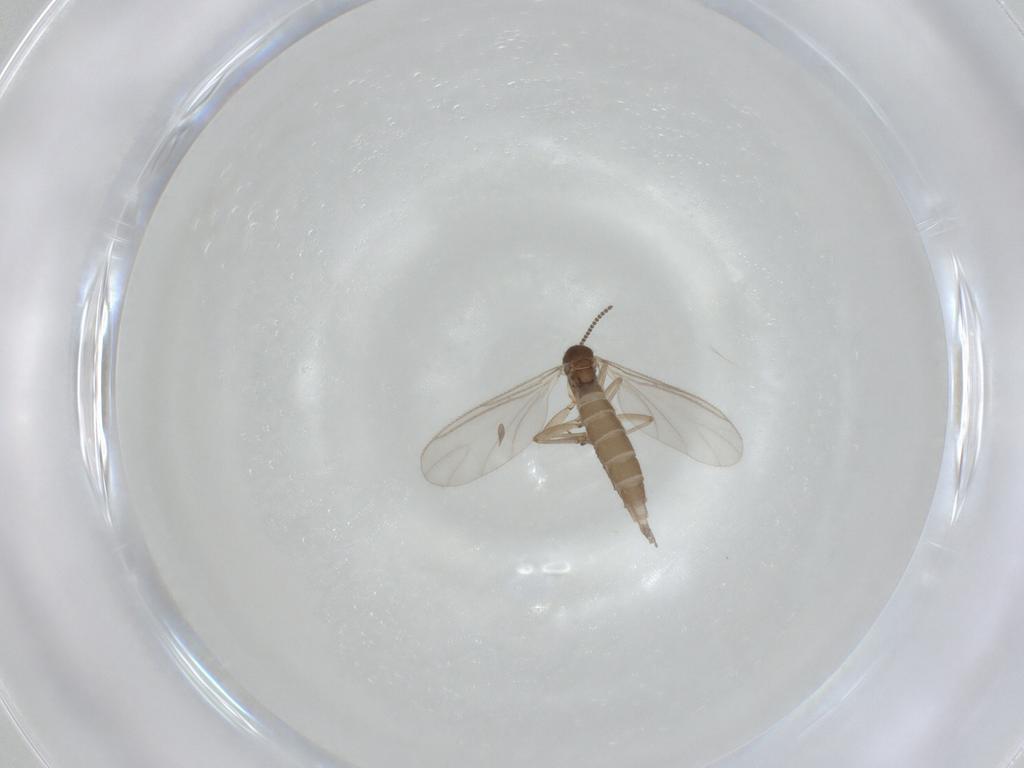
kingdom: Animalia
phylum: Arthropoda
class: Insecta
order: Diptera
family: Sciaridae
